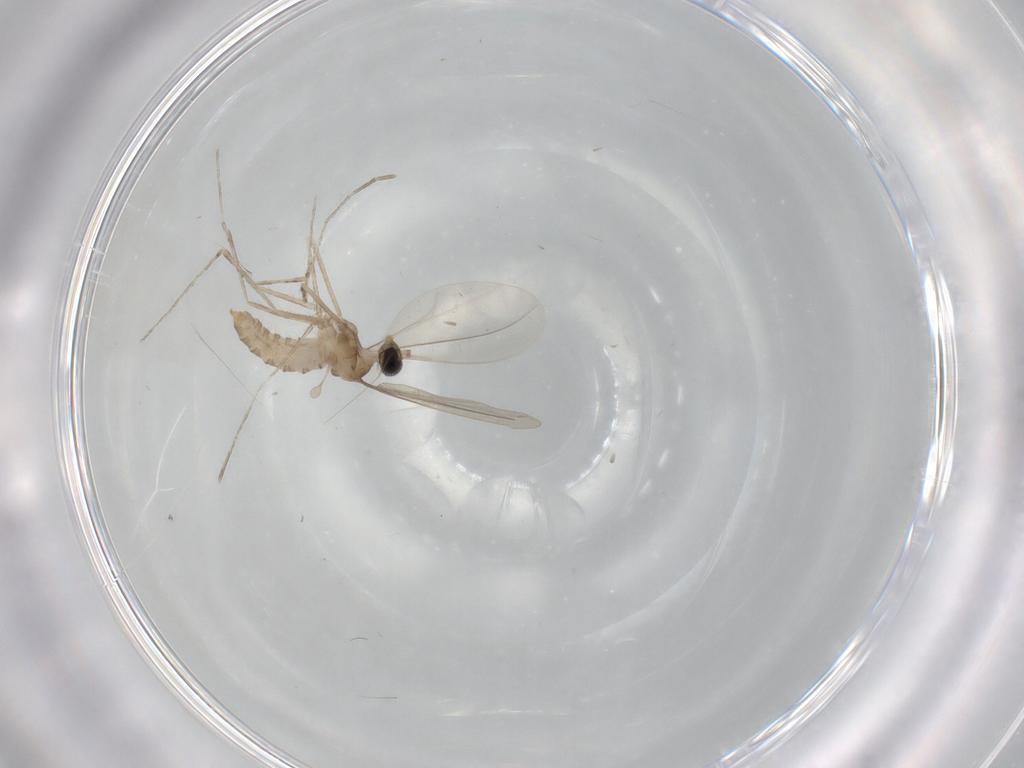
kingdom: Animalia
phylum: Arthropoda
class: Insecta
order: Diptera
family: Cecidomyiidae
